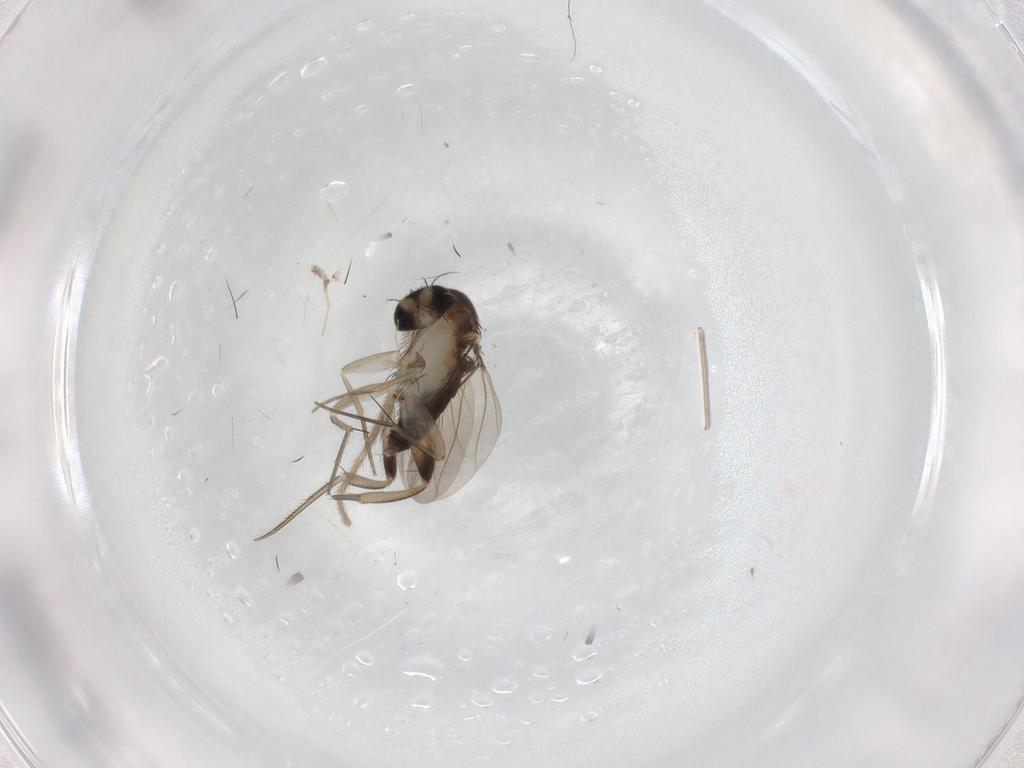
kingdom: Animalia
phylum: Arthropoda
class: Insecta
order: Diptera
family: Phoridae
